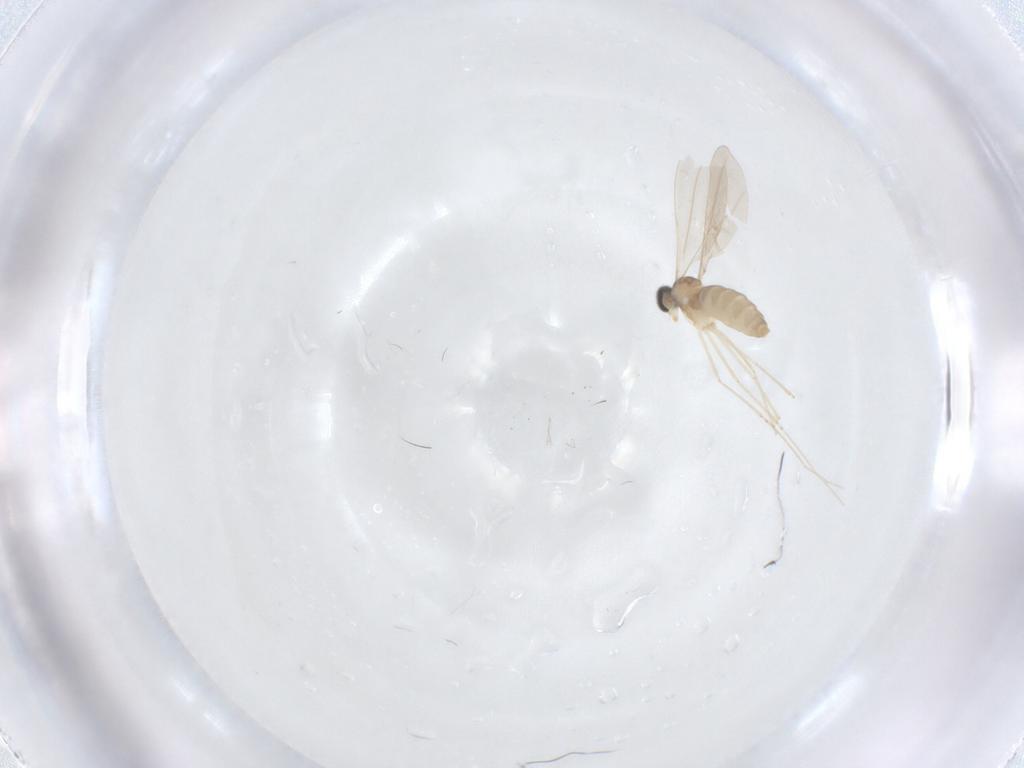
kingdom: Animalia
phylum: Arthropoda
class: Insecta
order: Diptera
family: Cecidomyiidae
